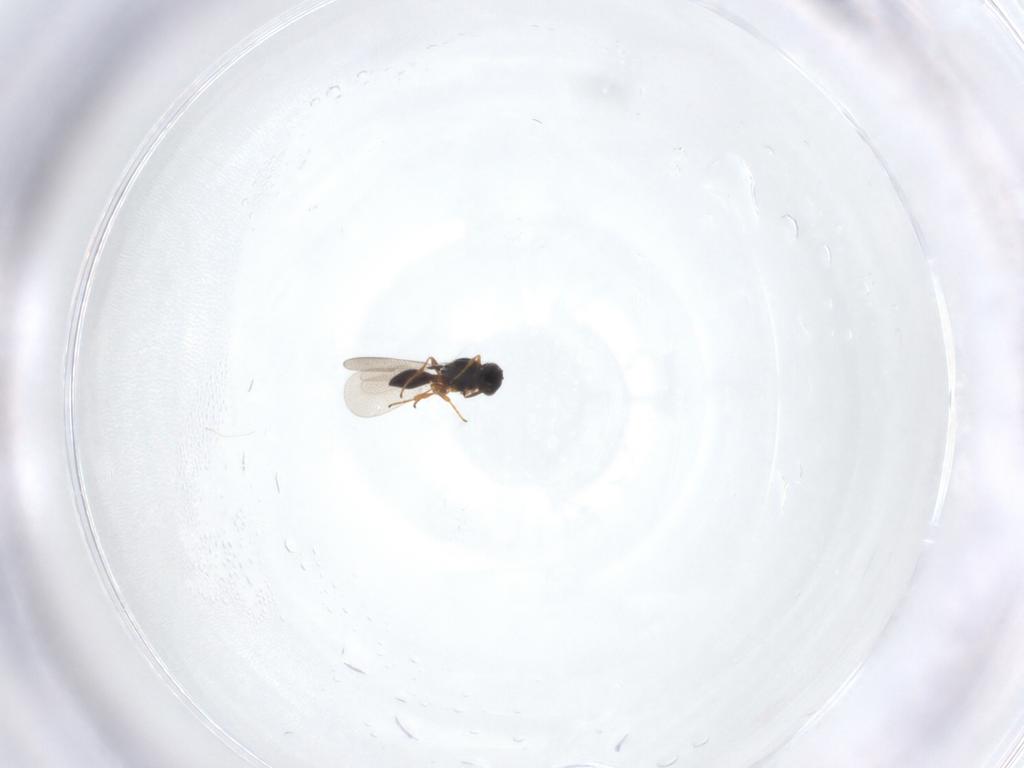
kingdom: Animalia
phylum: Arthropoda
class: Insecta
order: Hymenoptera
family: Platygastridae
